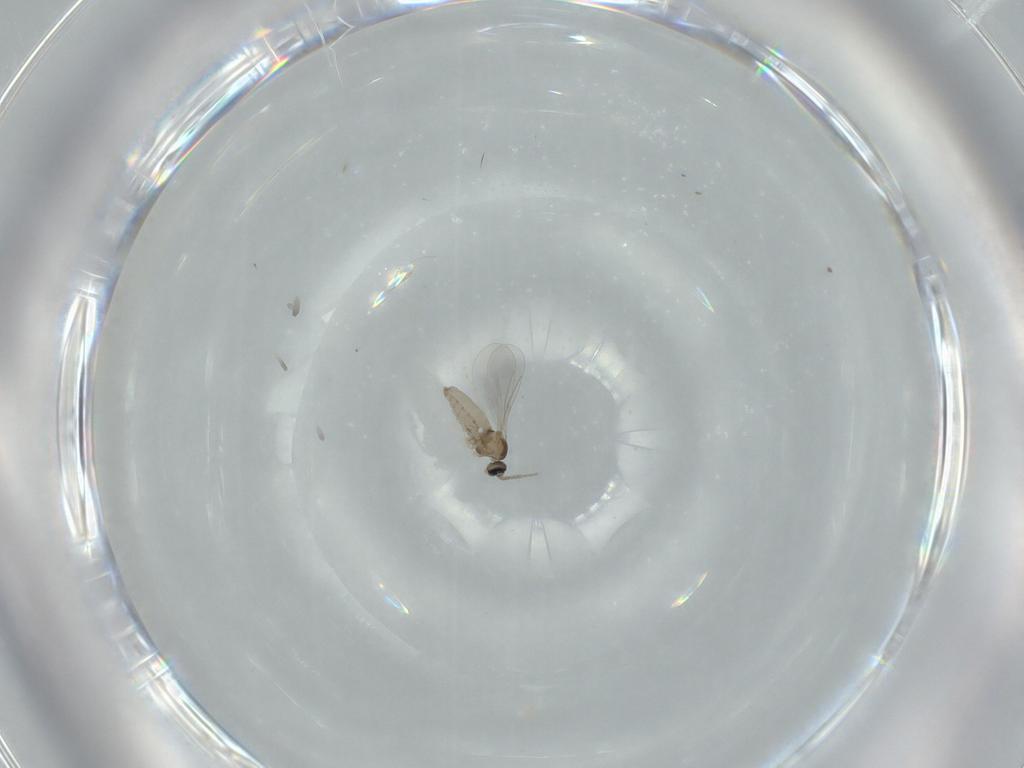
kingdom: Animalia
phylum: Arthropoda
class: Insecta
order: Diptera
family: Cecidomyiidae
